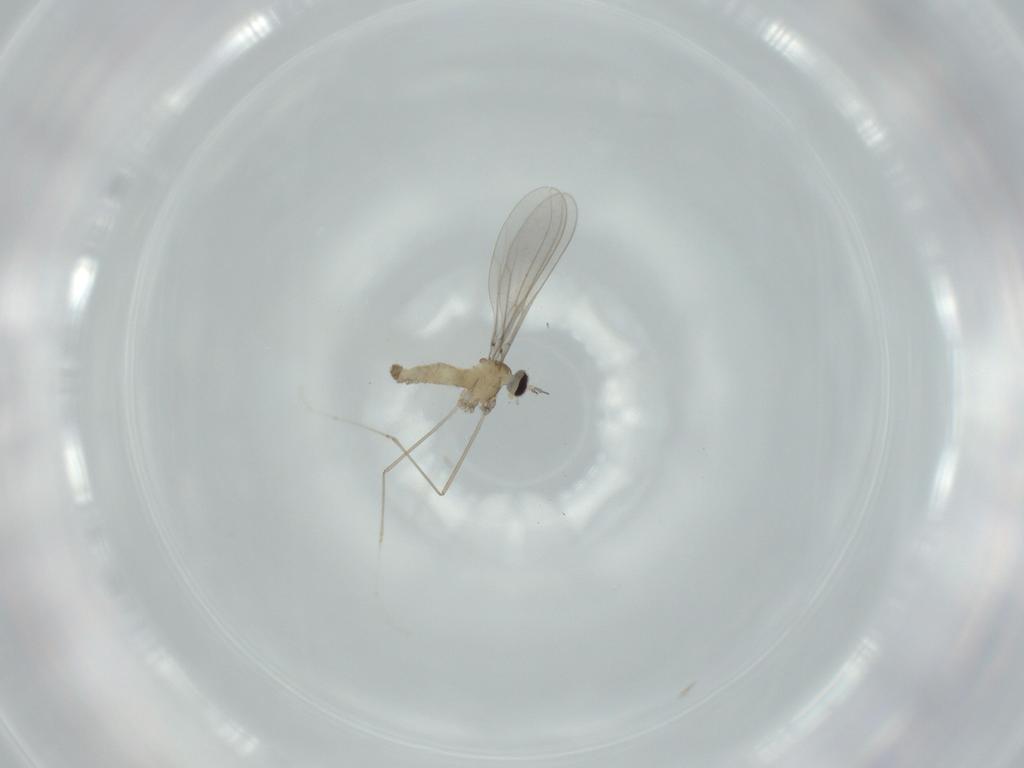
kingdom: Animalia
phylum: Arthropoda
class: Insecta
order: Diptera
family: Cecidomyiidae
